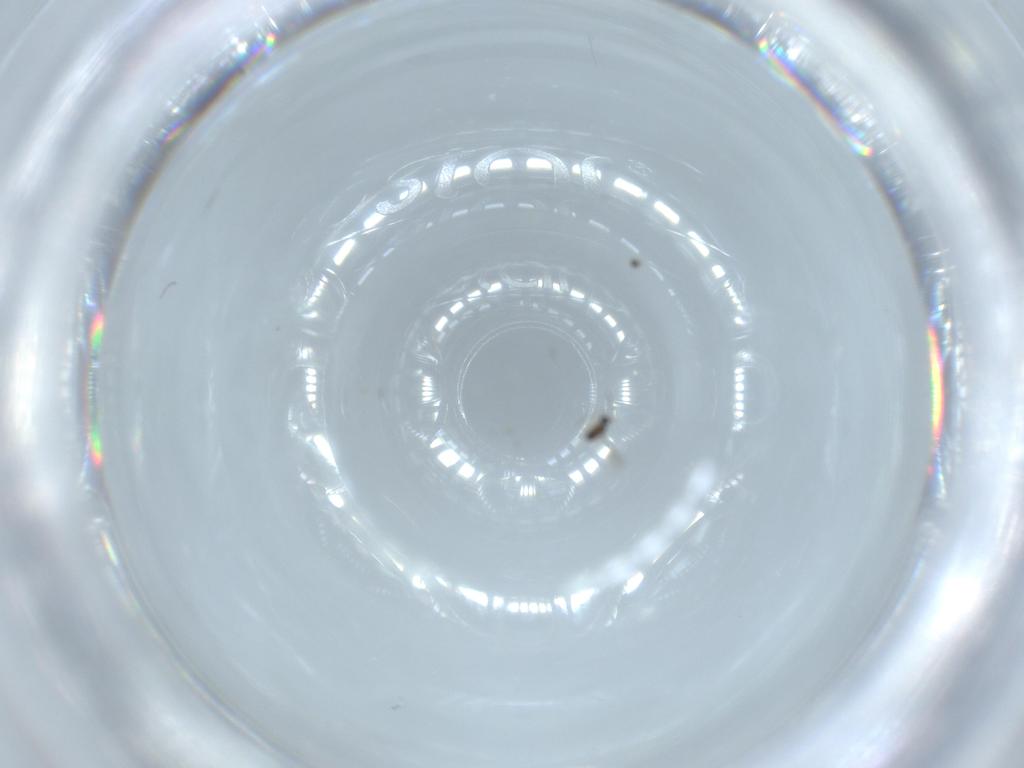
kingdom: Animalia
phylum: Arthropoda
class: Insecta
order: Hymenoptera
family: Mymaridae
